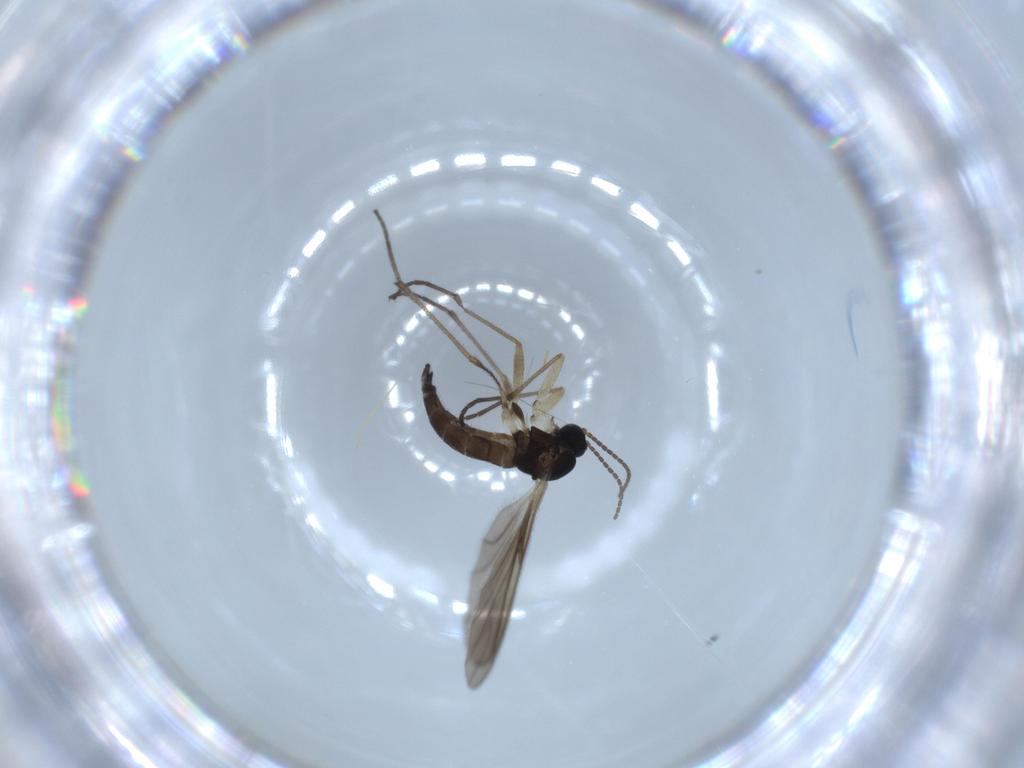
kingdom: Animalia
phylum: Arthropoda
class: Insecta
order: Diptera
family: Sciaridae
